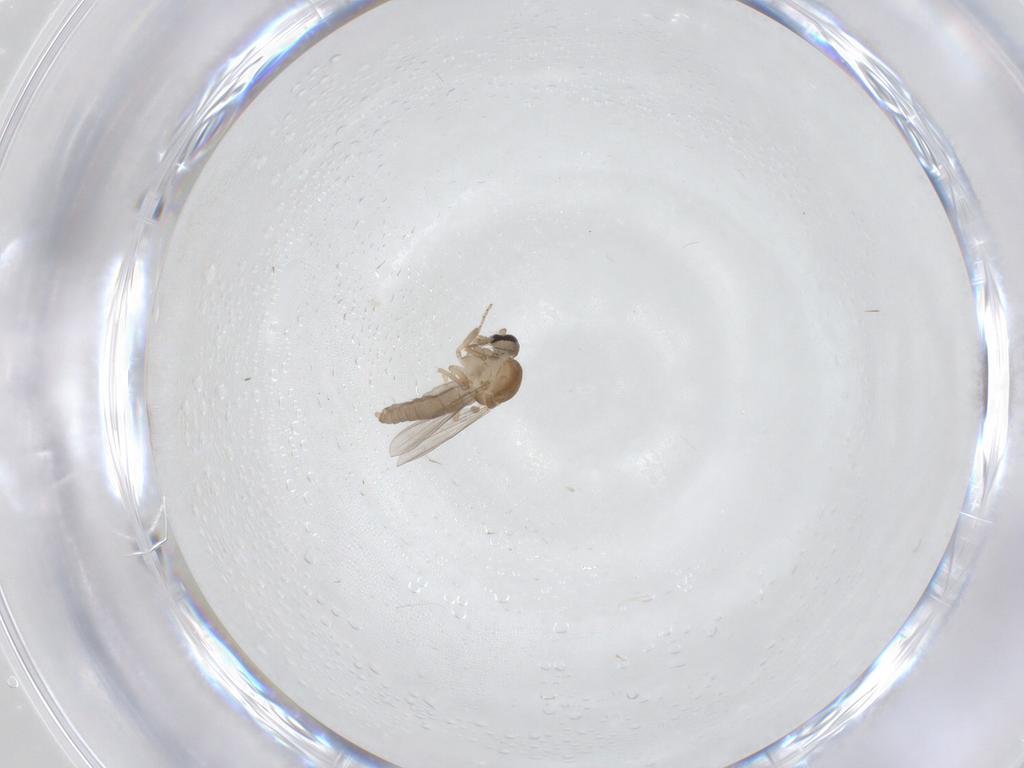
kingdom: Animalia
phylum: Arthropoda
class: Insecta
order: Diptera
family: Ceratopogonidae
